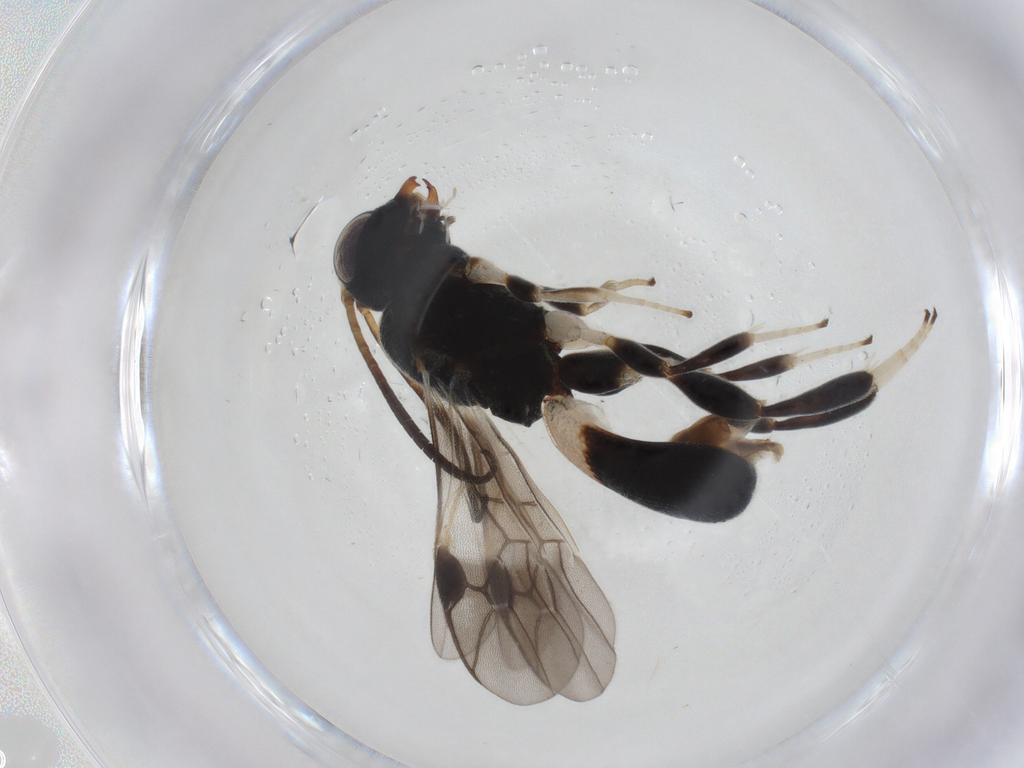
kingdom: Animalia
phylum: Arthropoda
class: Insecta
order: Hymenoptera
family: Braconidae
